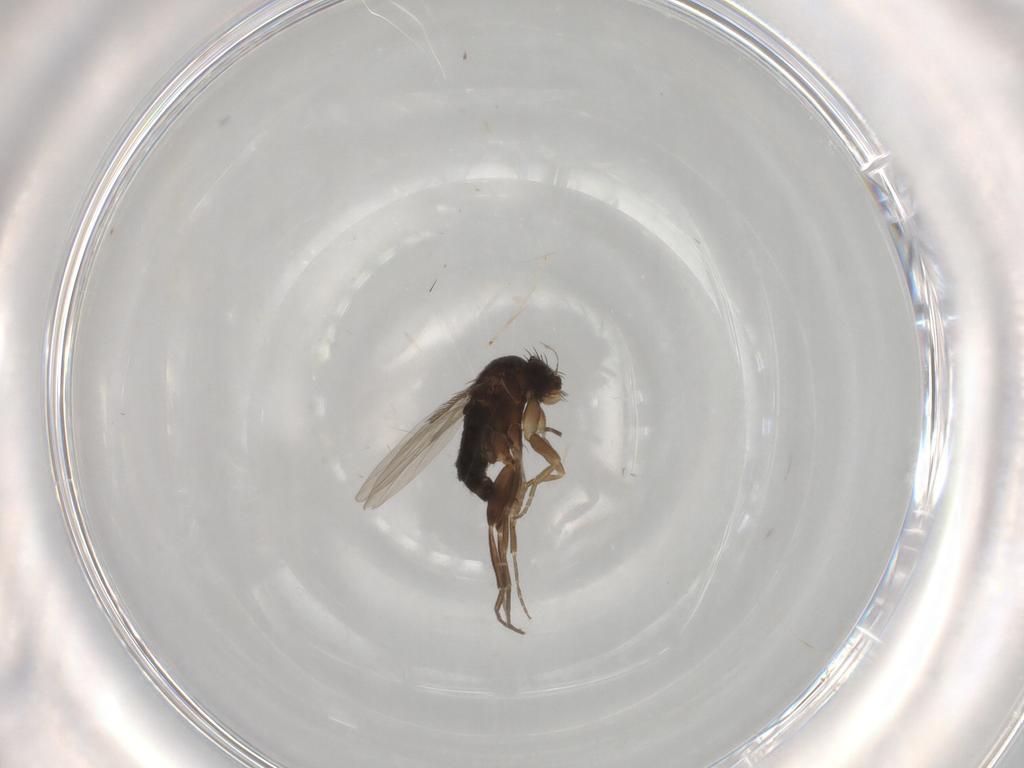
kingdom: Animalia
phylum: Arthropoda
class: Insecta
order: Diptera
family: Phoridae
